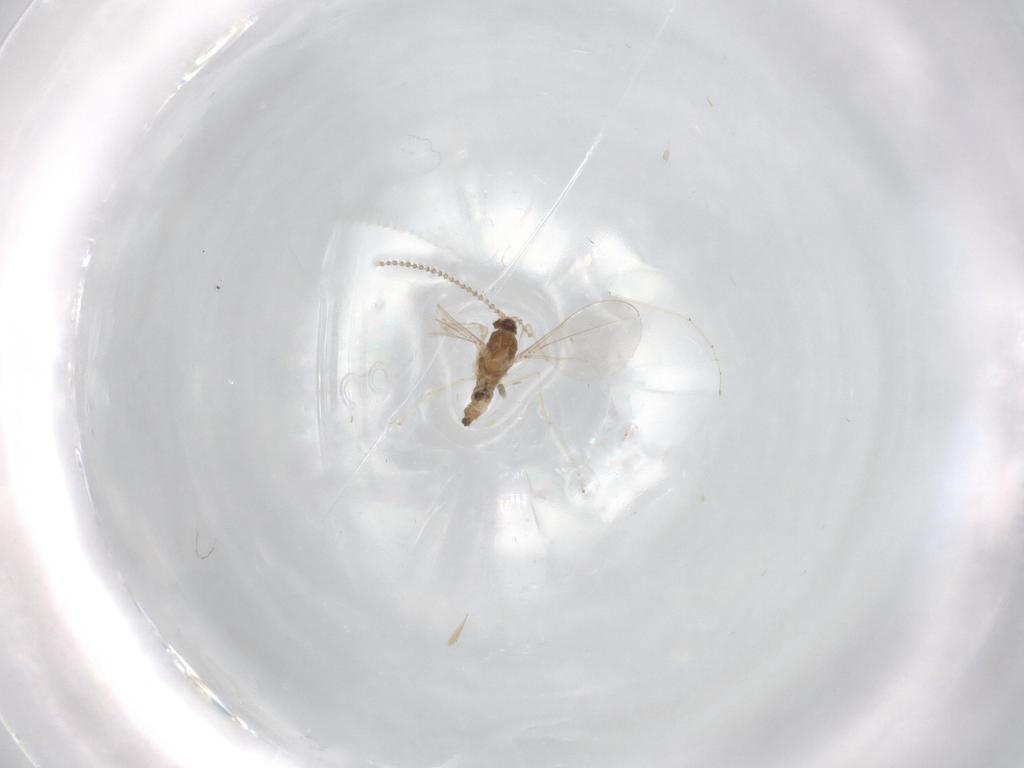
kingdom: Animalia
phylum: Arthropoda
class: Insecta
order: Diptera
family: Cecidomyiidae
